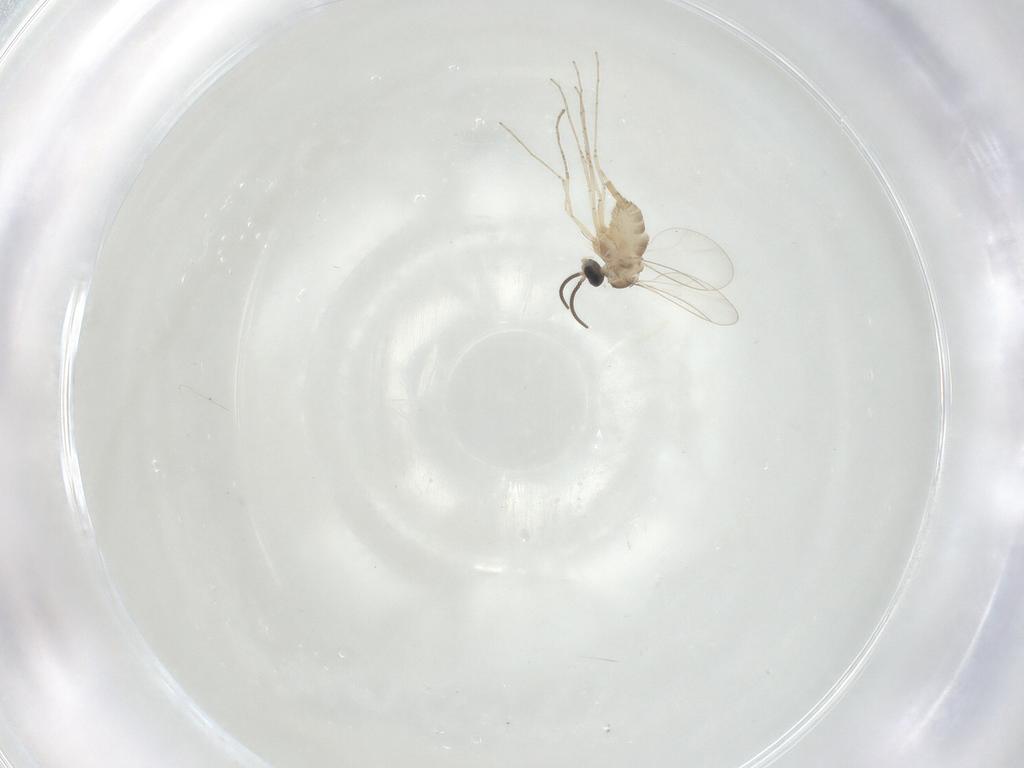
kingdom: Animalia
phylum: Arthropoda
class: Insecta
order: Diptera
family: Cecidomyiidae
